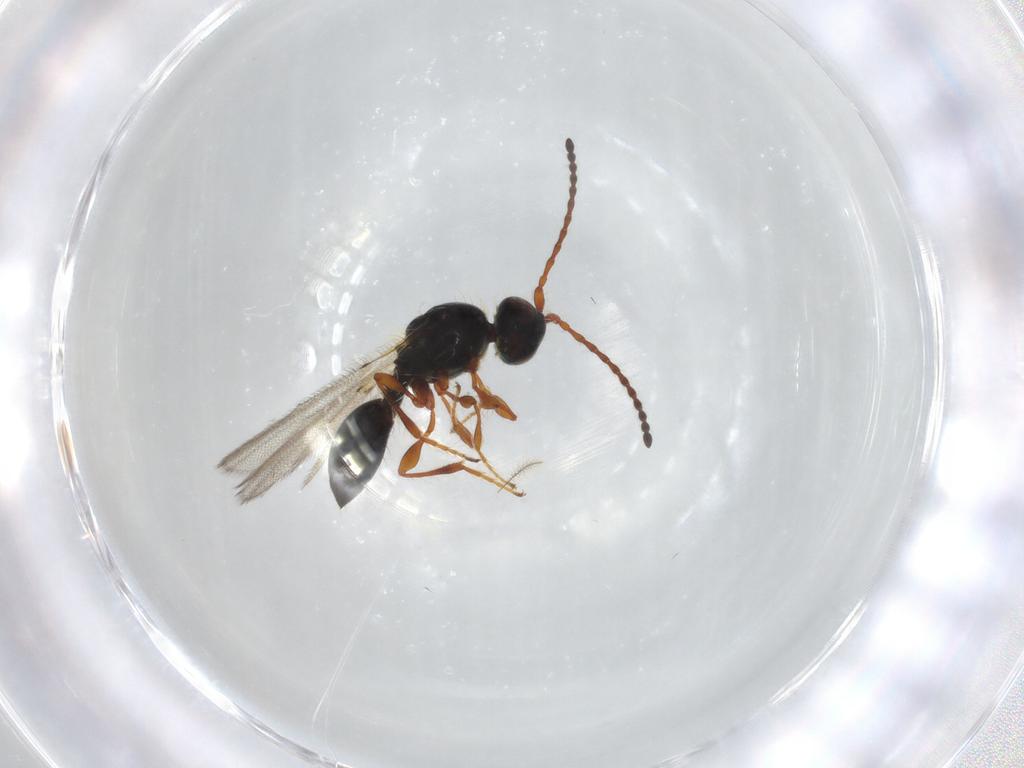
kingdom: Animalia
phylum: Arthropoda
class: Insecta
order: Hymenoptera
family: Diapriidae
